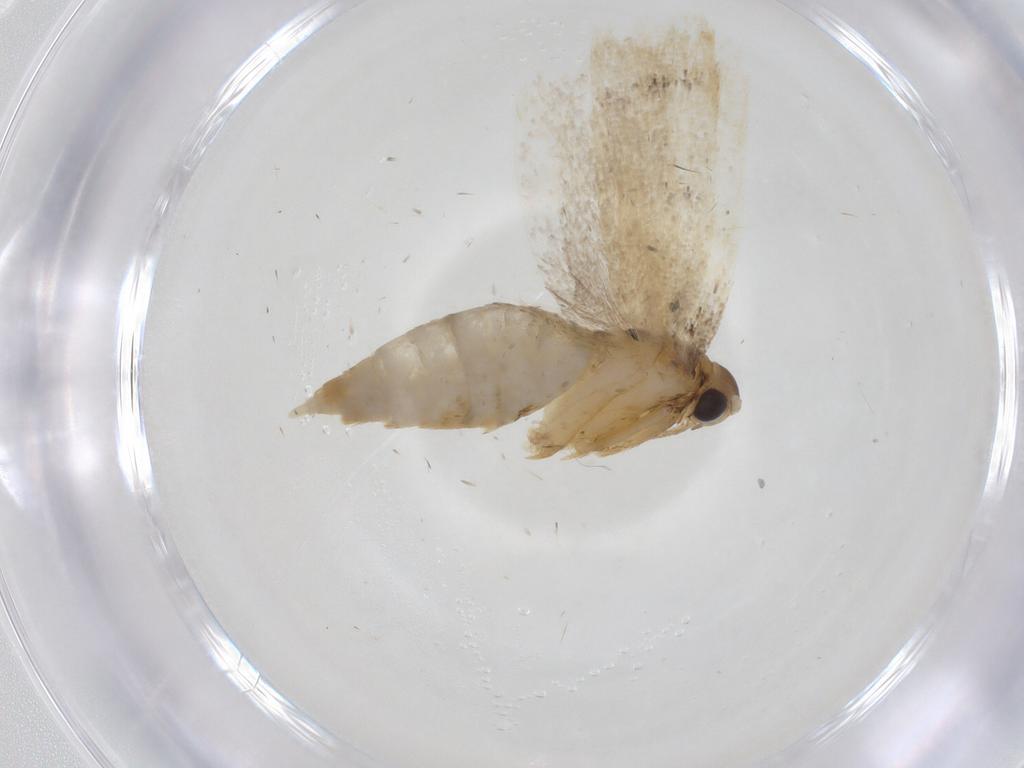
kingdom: Animalia
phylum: Arthropoda
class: Insecta
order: Lepidoptera
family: Lecithoceridae
